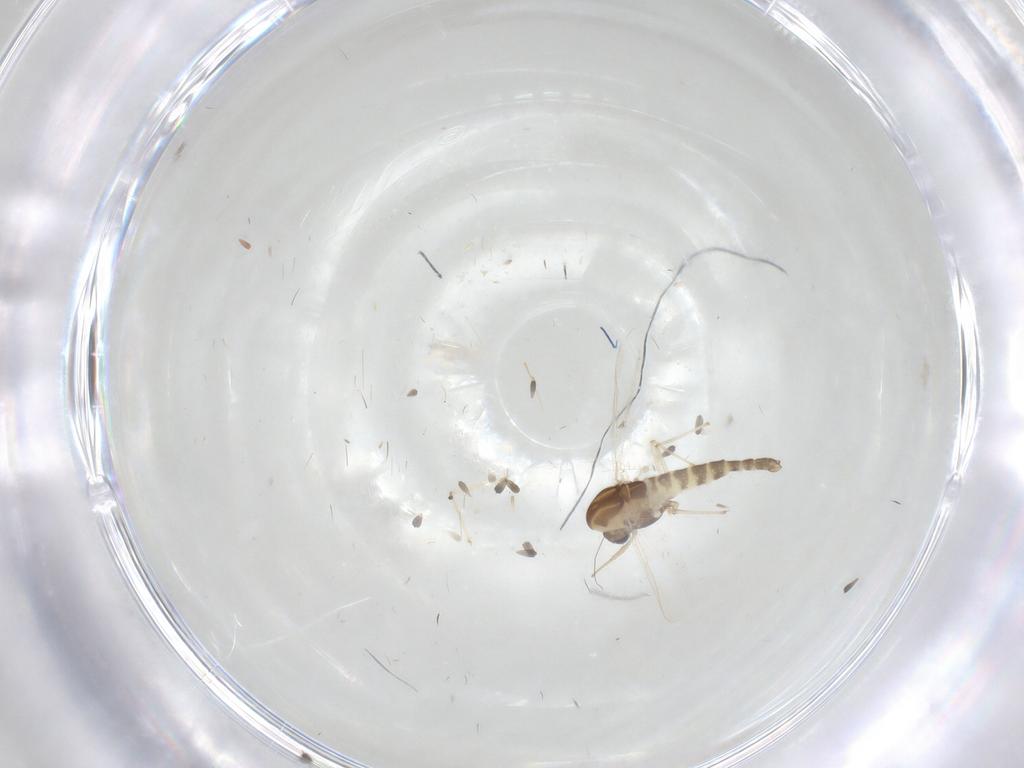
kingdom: Animalia
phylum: Arthropoda
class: Insecta
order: Diptera
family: Chironomidae
